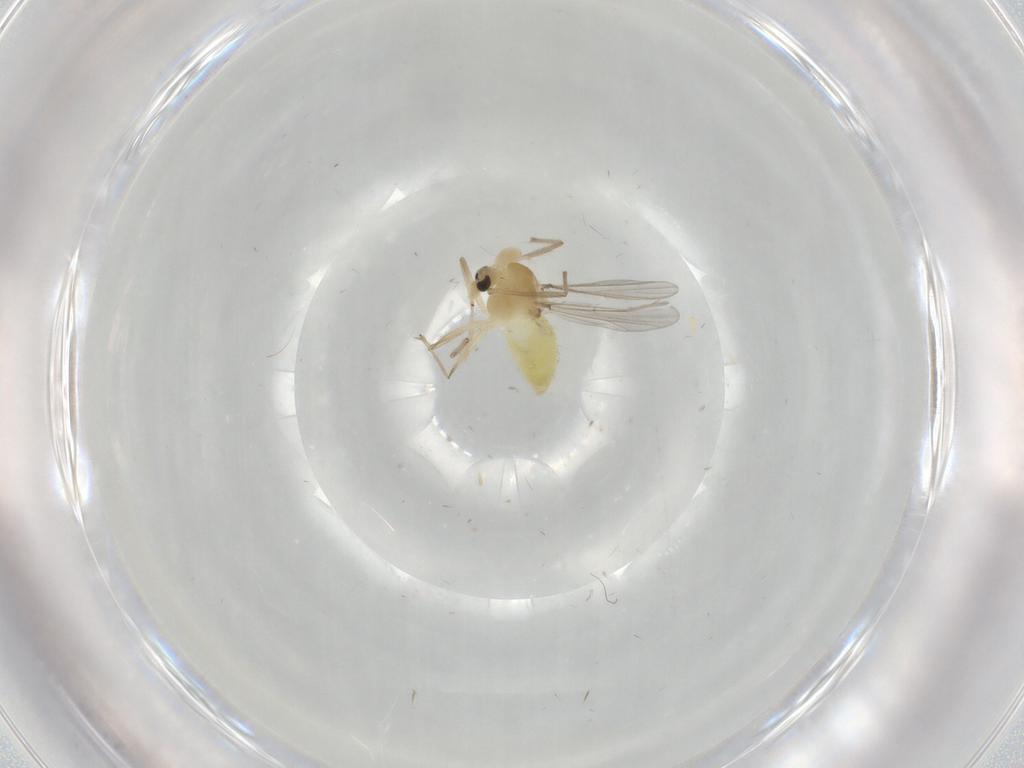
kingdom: Animalia
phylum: Arthropoda
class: Insecta
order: Diptera
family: Chironomidae
